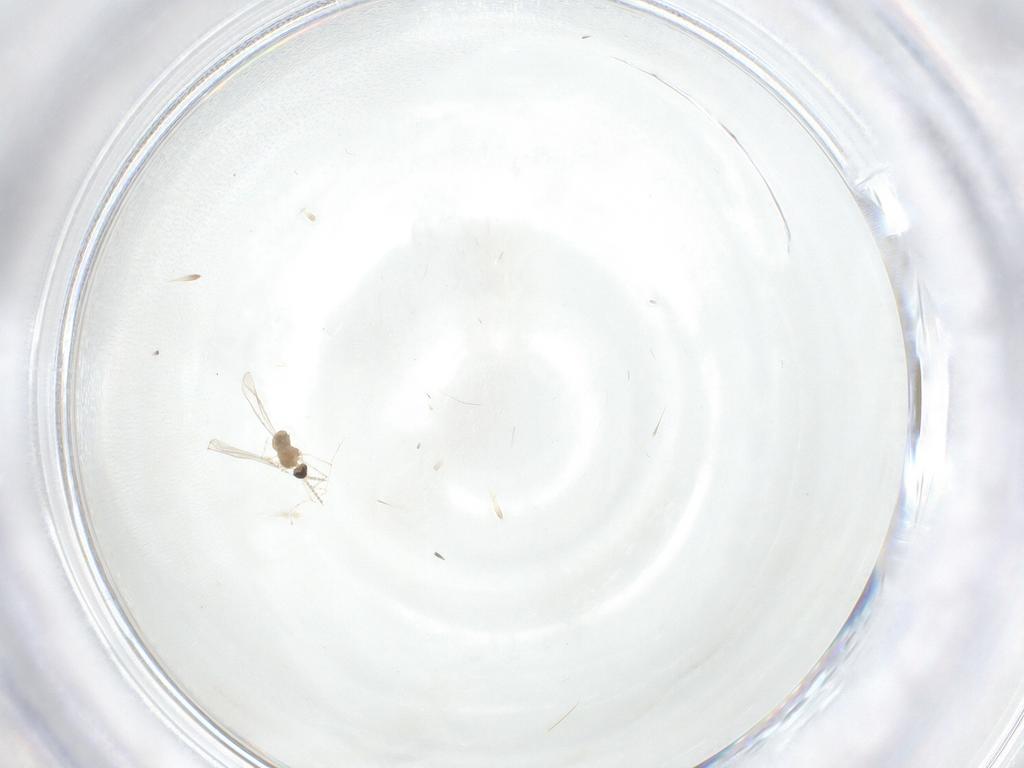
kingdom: Animalia
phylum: Arthropoda
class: Insecta
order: Diptera
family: Cecidomyiidae
